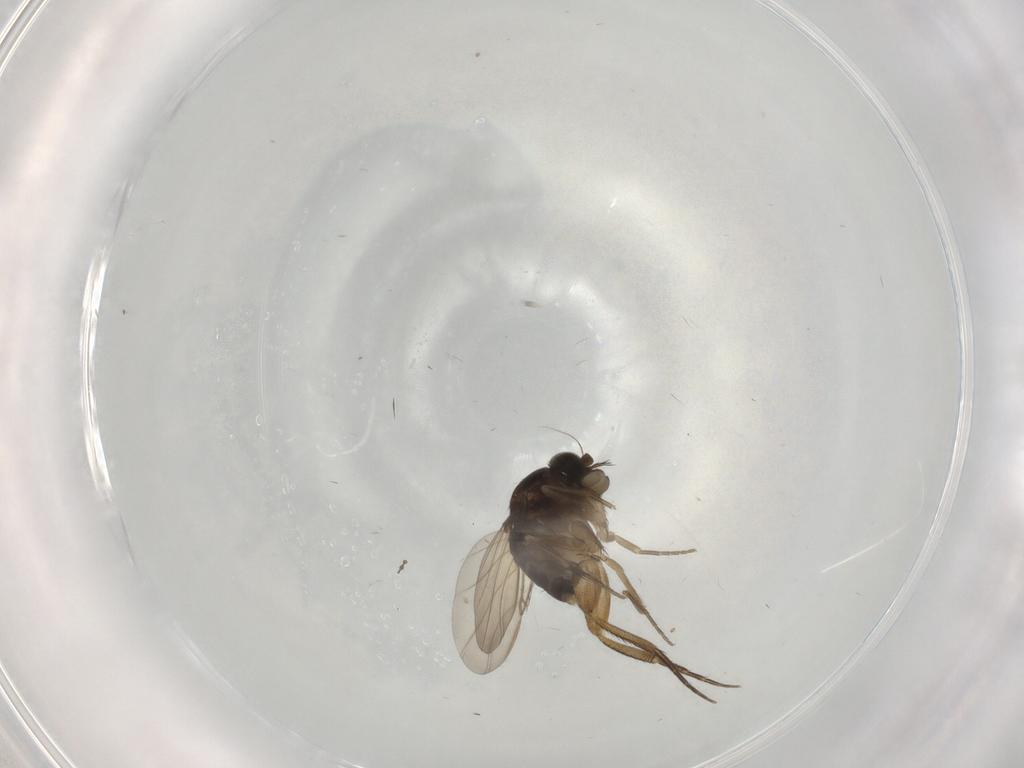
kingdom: Animalia
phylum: Arthropoda
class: Insecta
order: Diptera
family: Phoridae
